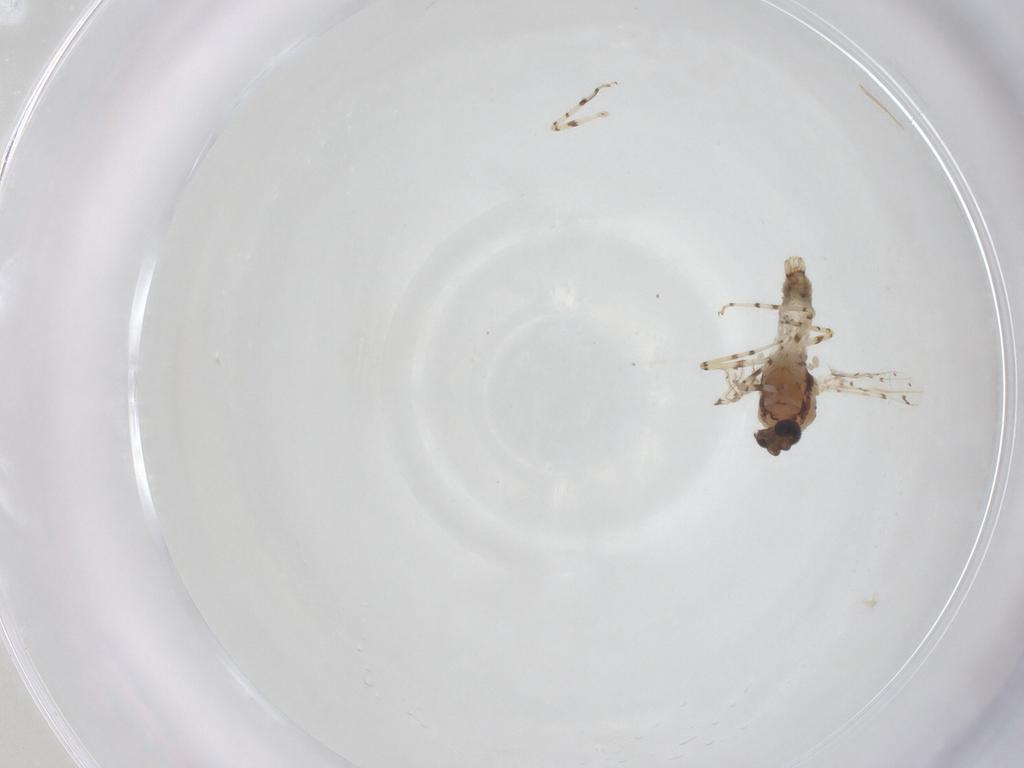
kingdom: Animalia
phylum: Arthropoda
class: Insecta
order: Diptera
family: Ceratopogonidae
